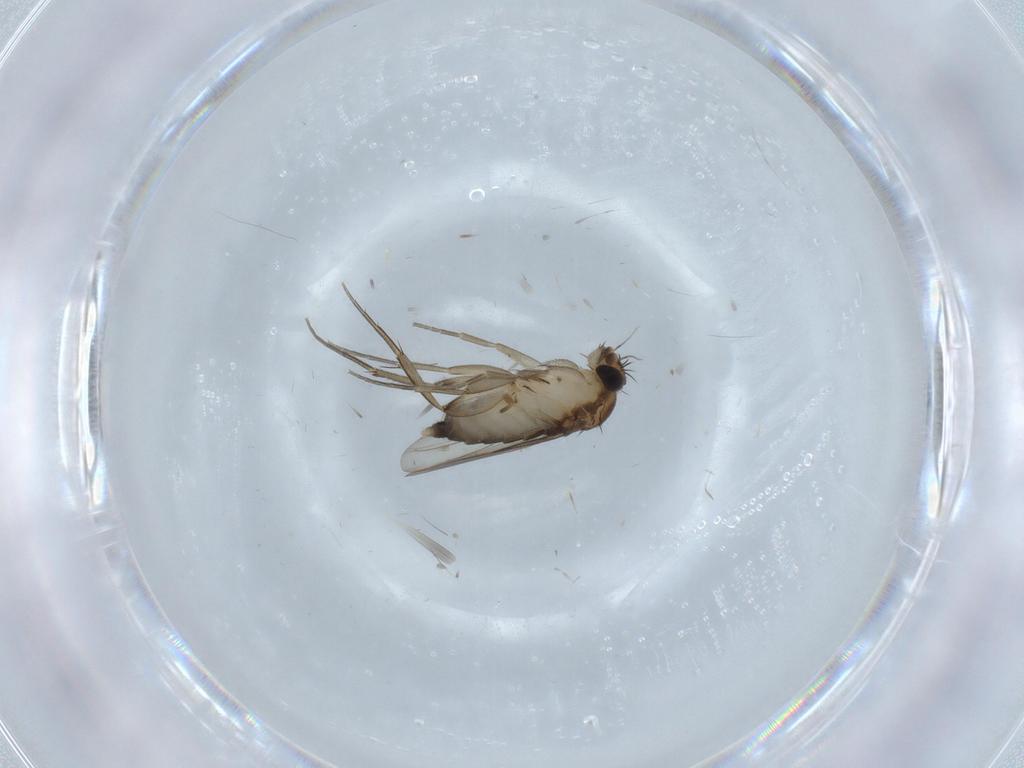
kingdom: Animalia
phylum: Arthropoda
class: Insecta
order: Diptera
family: Phoridae
